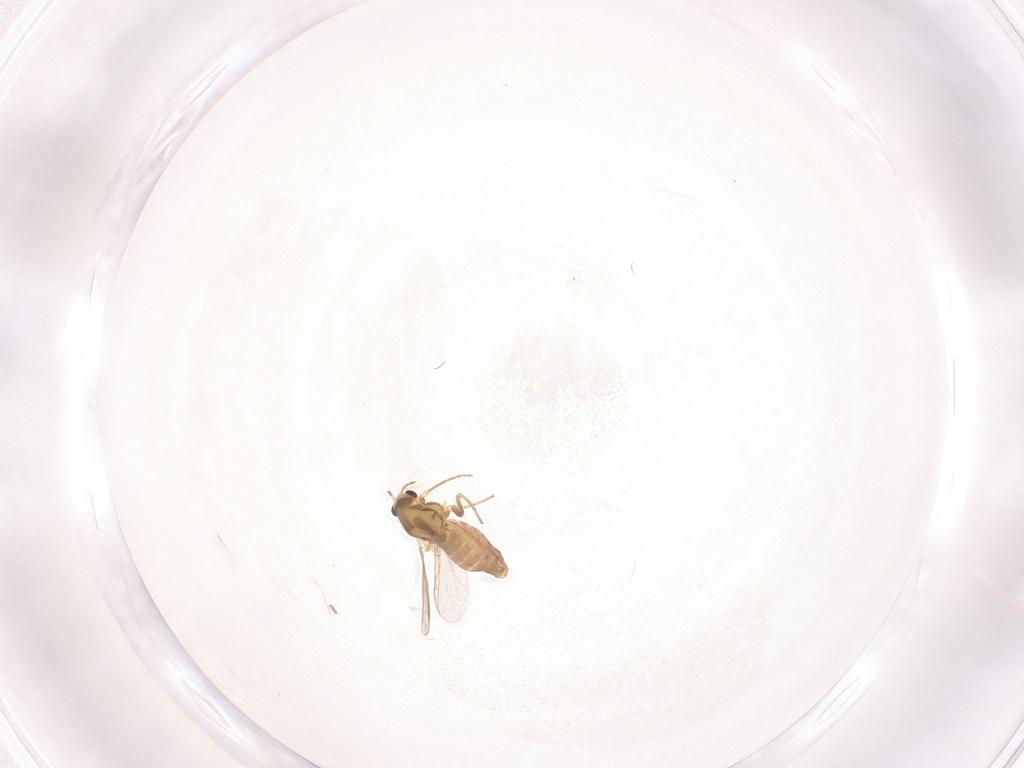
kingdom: Animalia
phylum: Arthropoda
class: Insecta
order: Diptera
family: Chironomidae
